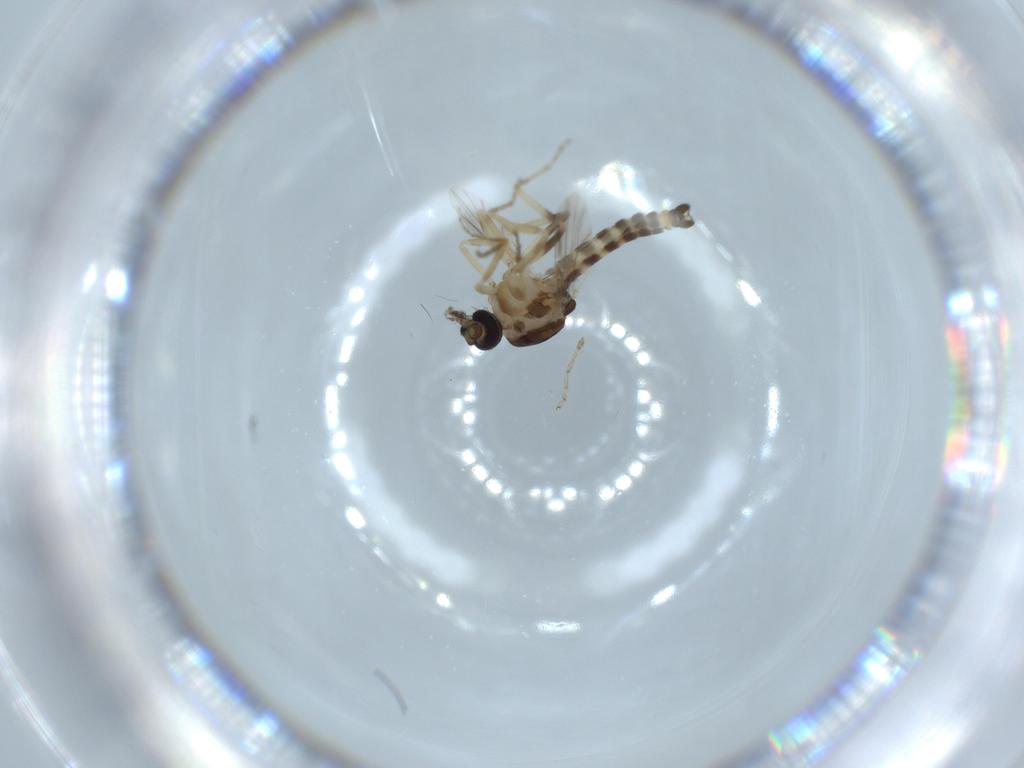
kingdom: Animalia
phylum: Arthropoda
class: Insecta
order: Diptera
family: Ceratopogonidae
